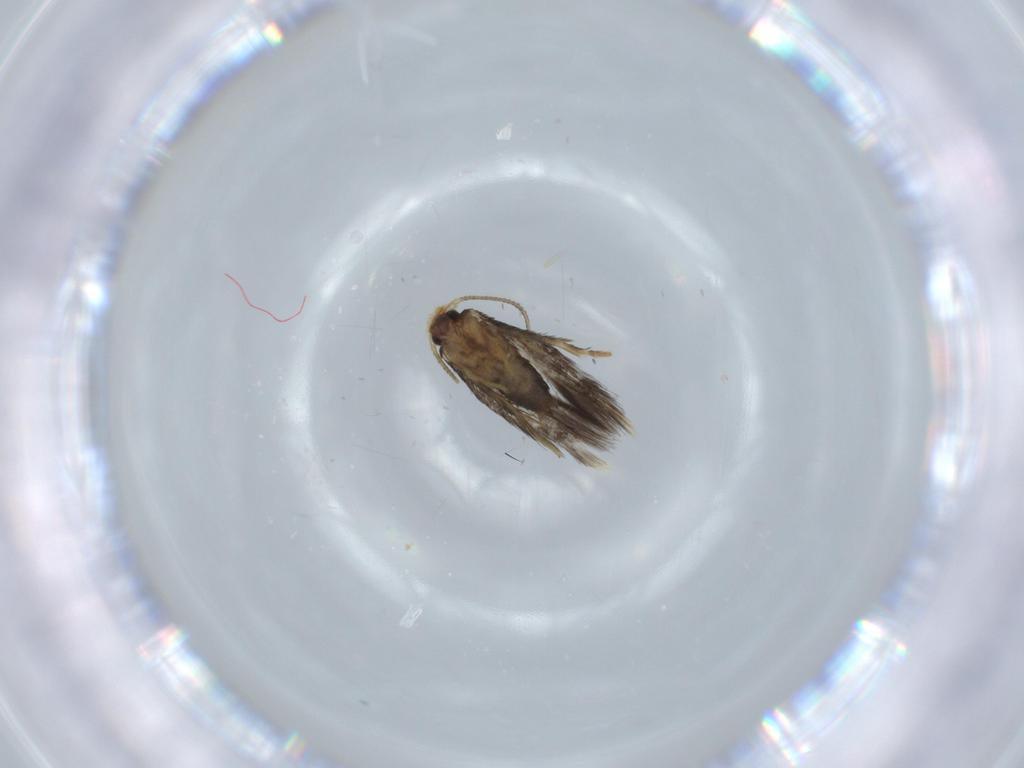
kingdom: Animalia
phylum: Arthropoda
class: Insecta
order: Lepidoptera
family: Nepticulidae
